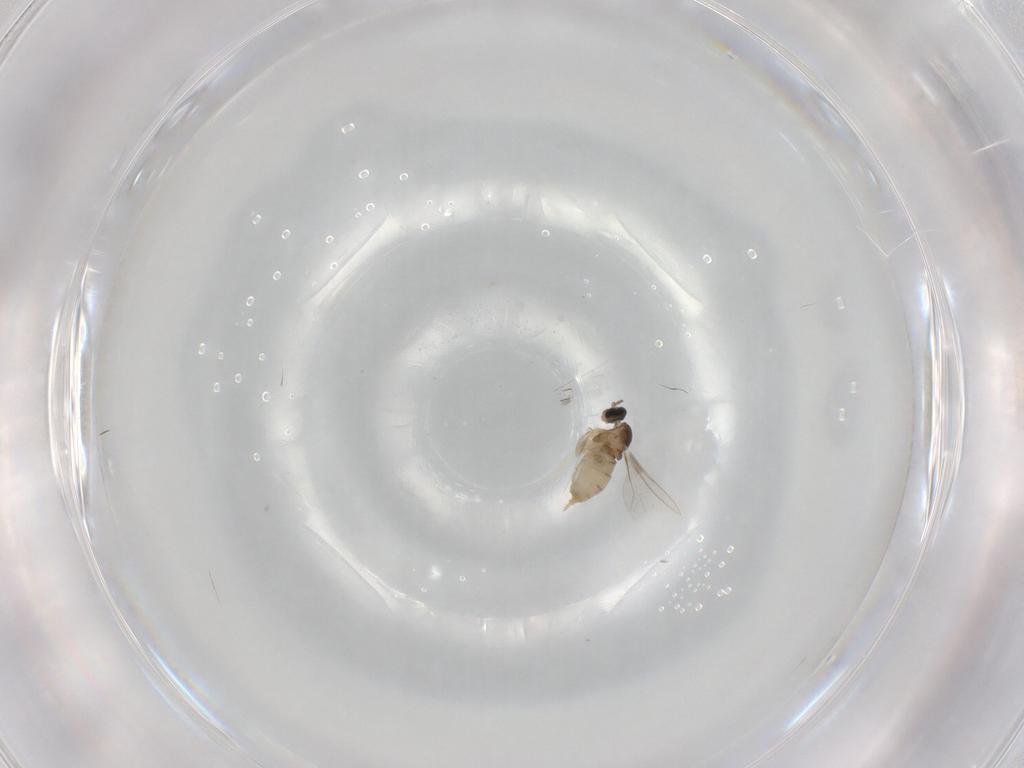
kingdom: Animalia
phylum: Arthropoda
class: Insecta
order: Diptera
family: Cecidomyiidae
